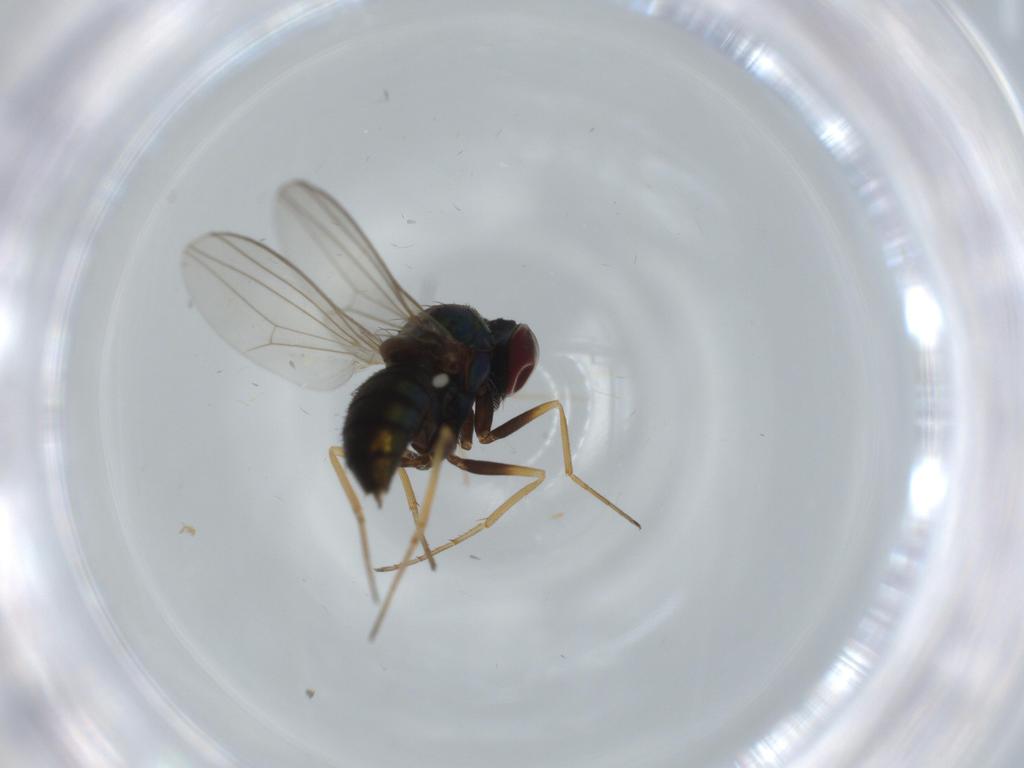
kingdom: Animalia
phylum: Arthropoda
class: Insecta
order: Diptera
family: Dolichopodidae
